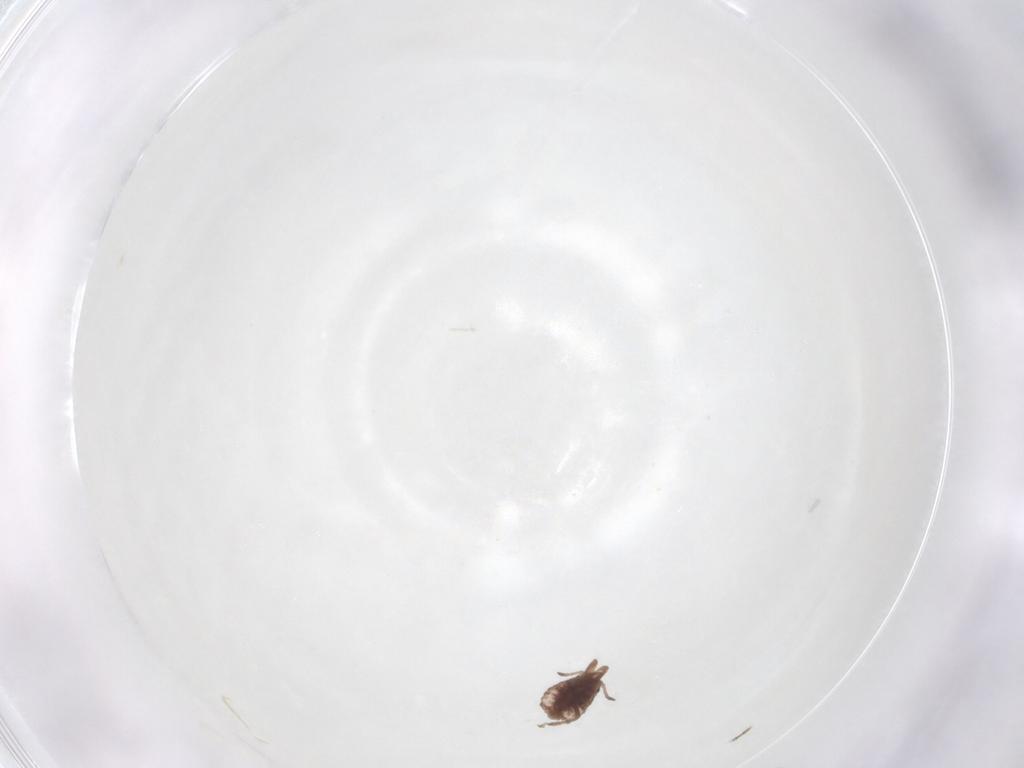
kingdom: Animalia
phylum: Arthropoda
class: Insecta
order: Hemiptera
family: Aphididae
